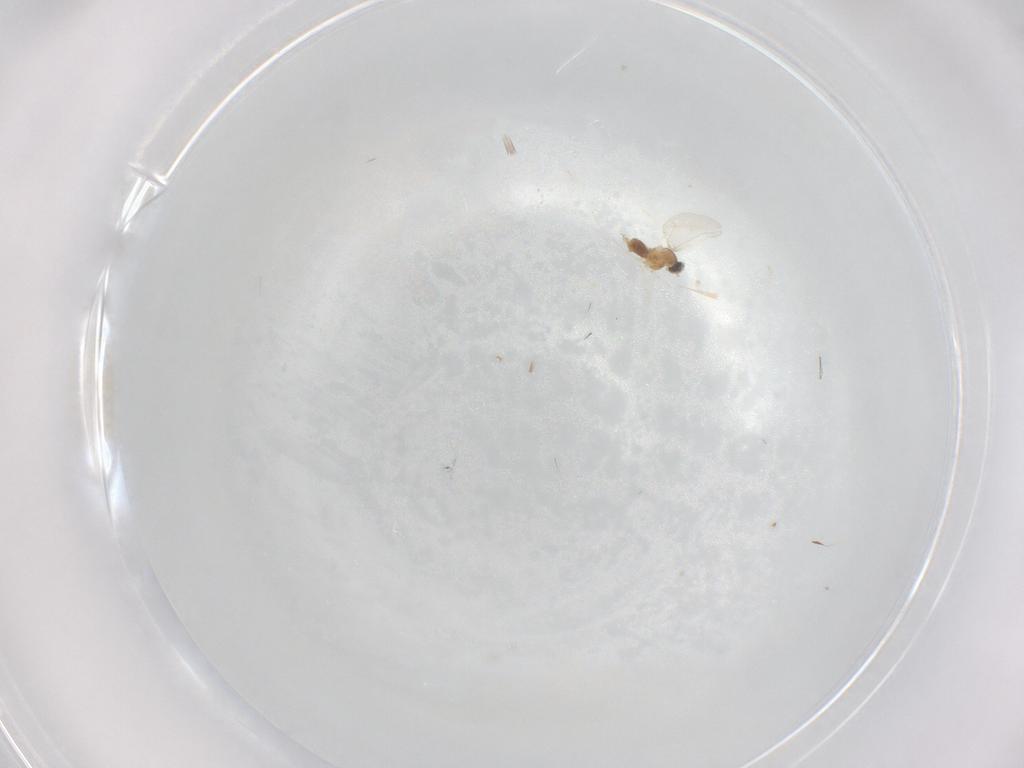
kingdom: Animalia
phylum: Arthropoda
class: Insecta
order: Diptera
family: Cecidomyiidae
